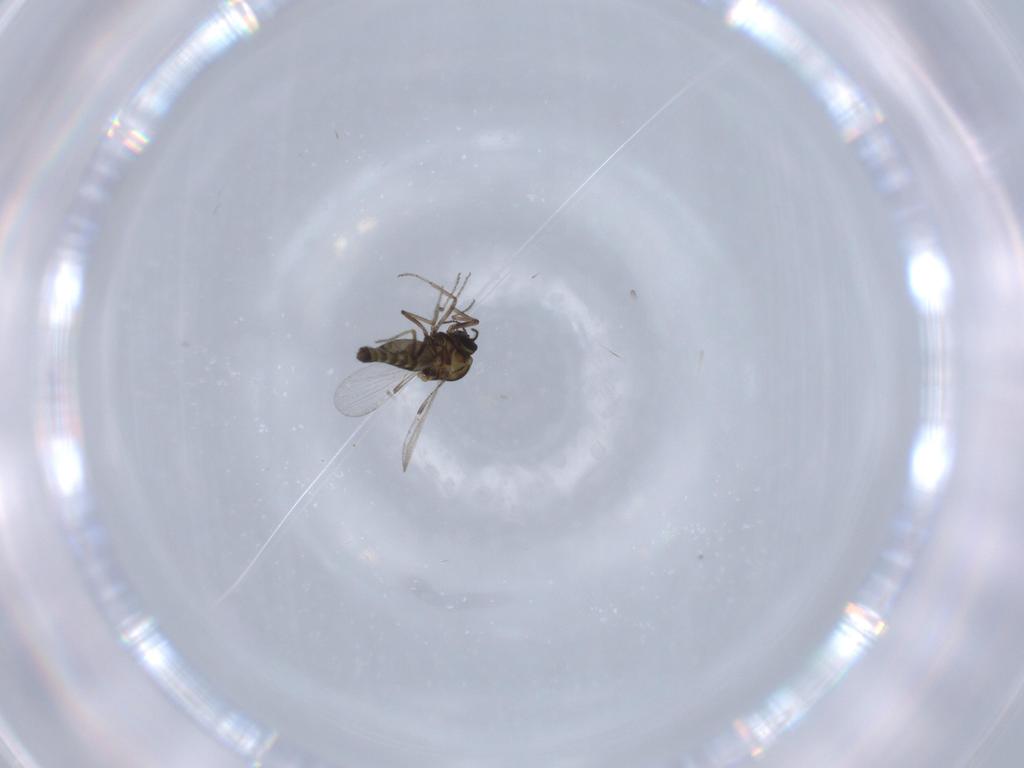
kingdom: Animalia
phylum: Arthropoda
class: Insecta
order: Diptera
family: Ceratopogonidae
